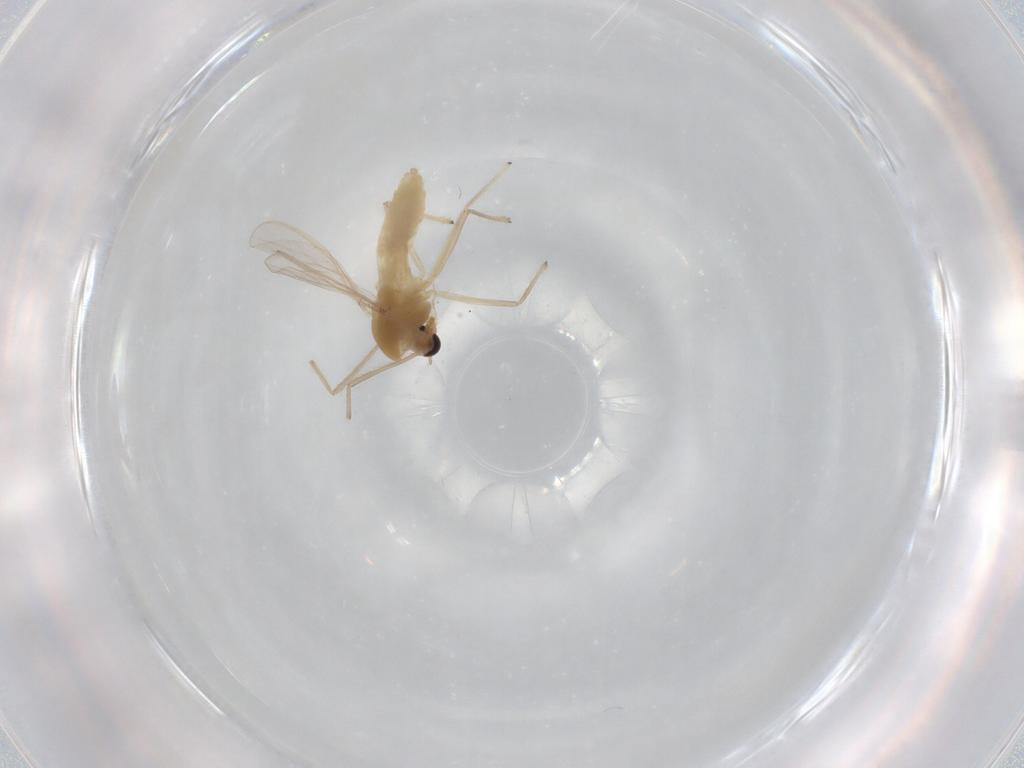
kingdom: Animalia
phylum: Arthropoda
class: Insecta
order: Diptera
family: Chironomidae
